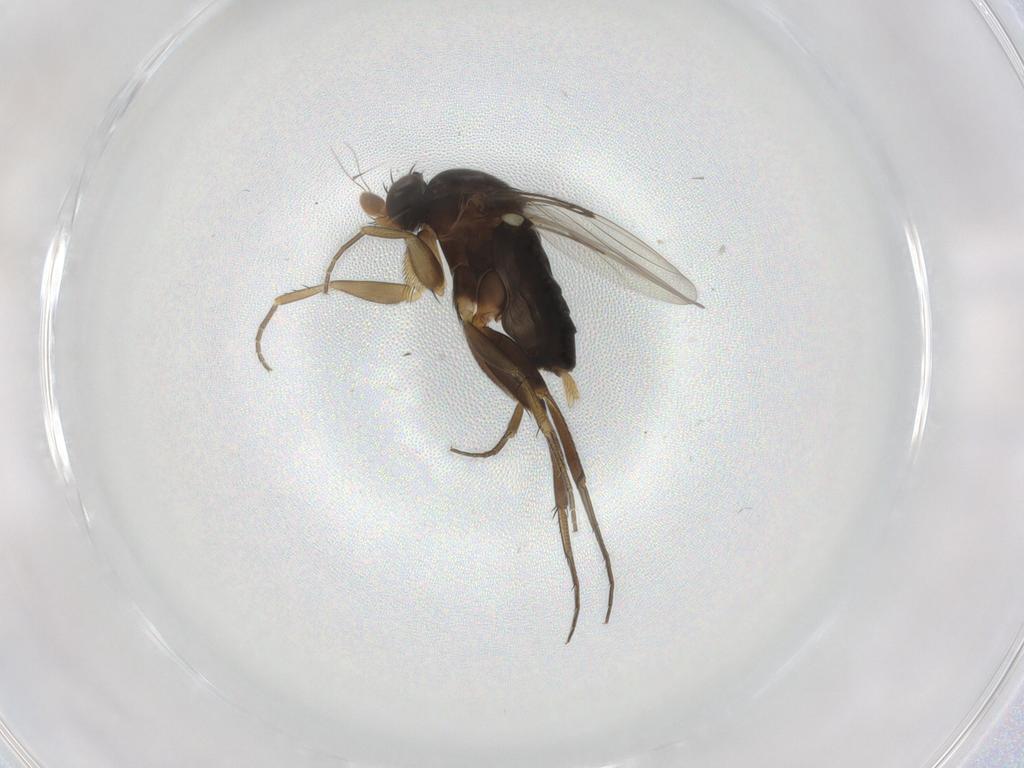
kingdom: Animalia
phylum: Arthropoda
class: Insecta
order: Diptera
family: Phoridae
